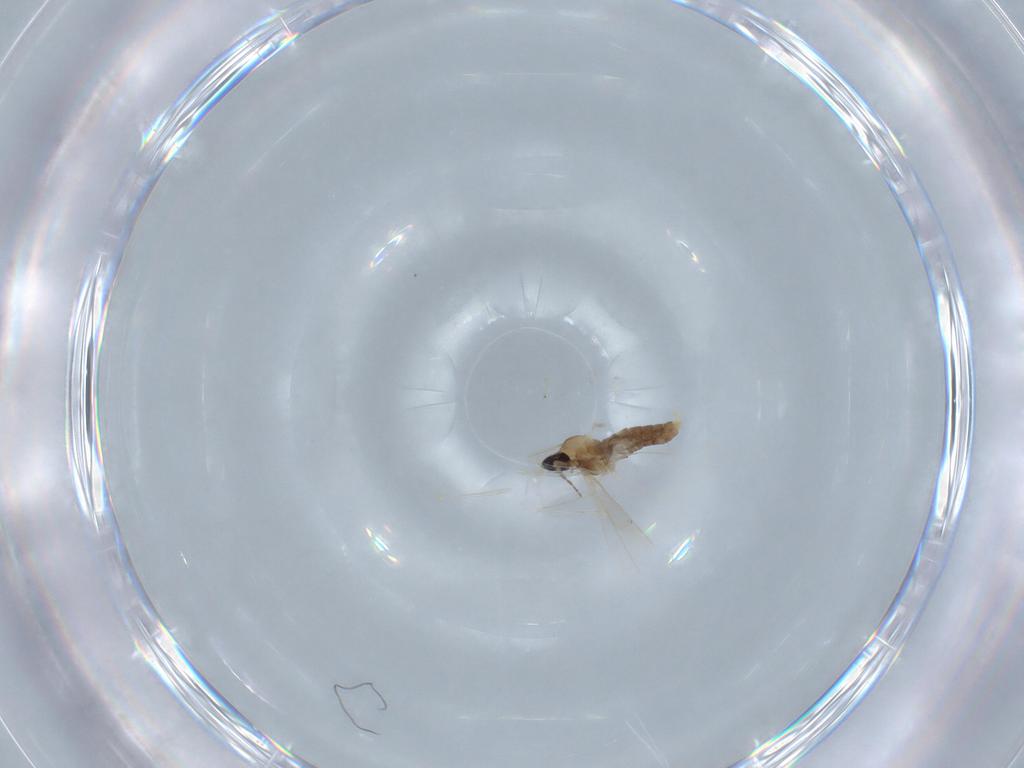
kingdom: Animalia
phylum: Arthropoda
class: Insecta
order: Diptera
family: Cecidomyiidae
